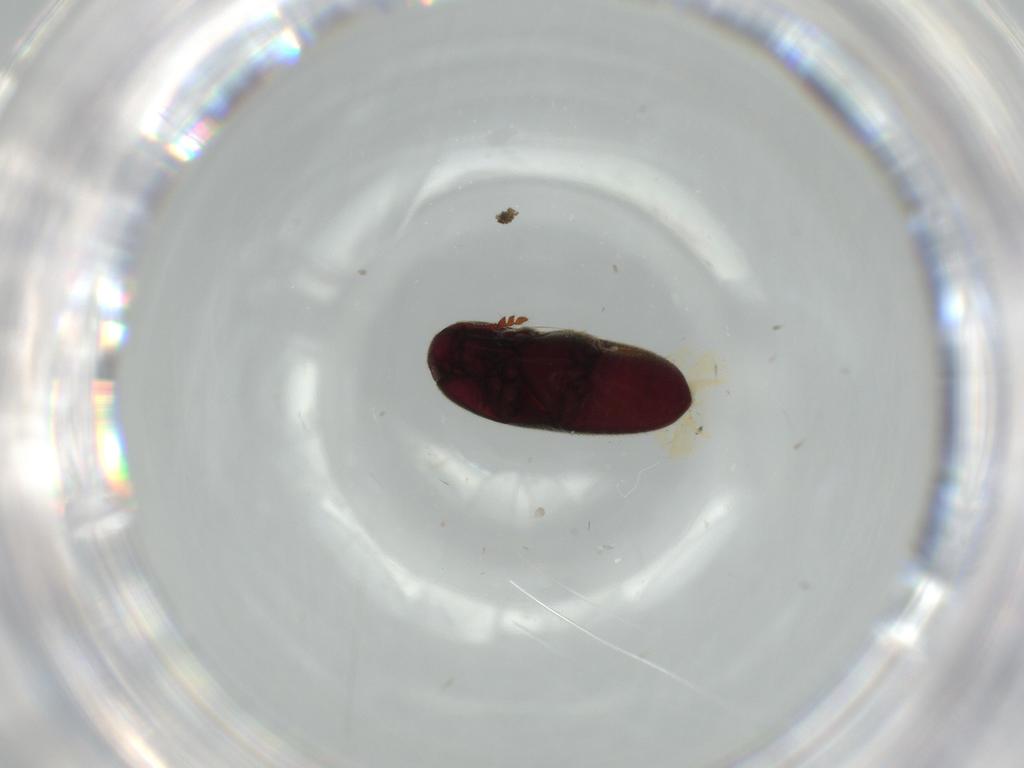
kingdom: Animalia
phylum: Arthropoda
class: Insecta
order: Coleoptera
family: Throscidae
